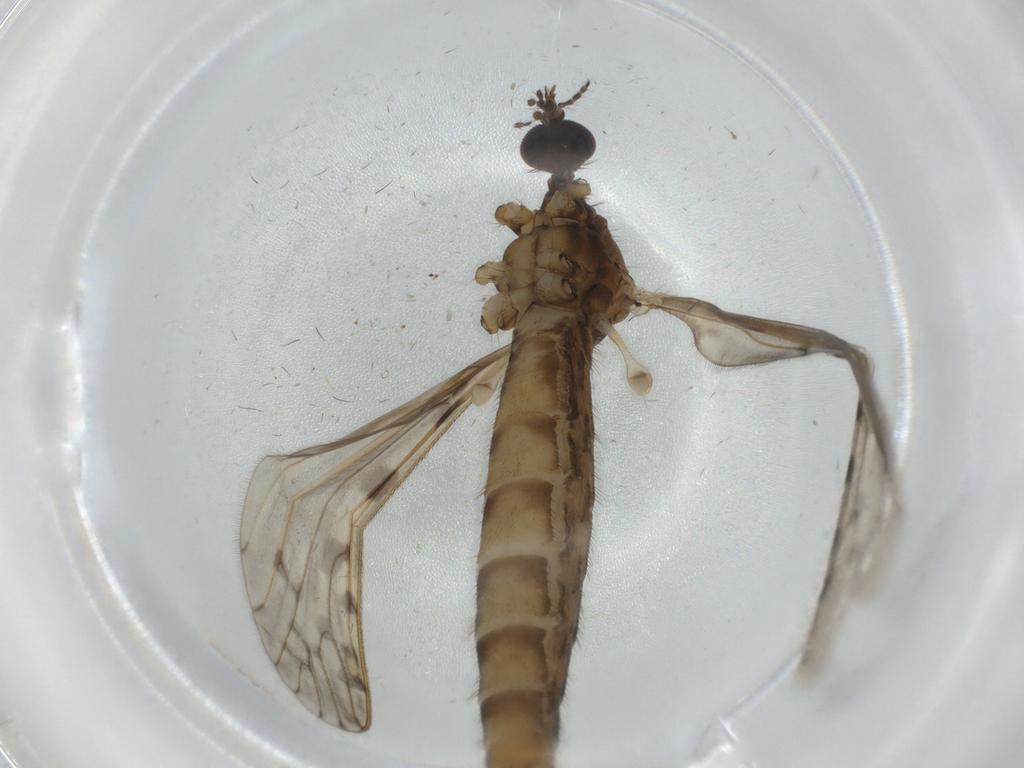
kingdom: Animalia
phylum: Arthropoda
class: Insecta
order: Diptera
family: Limoniidae
